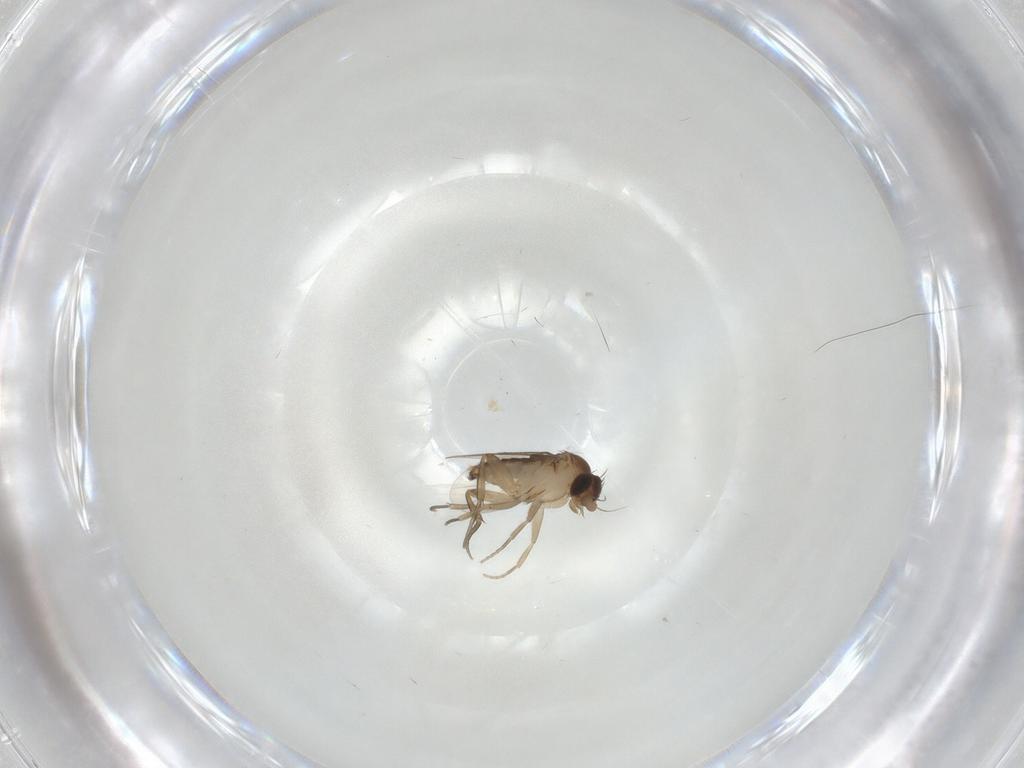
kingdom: Animalia
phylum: Arthropoda
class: Insecta
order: Diptera
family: Phoridae
